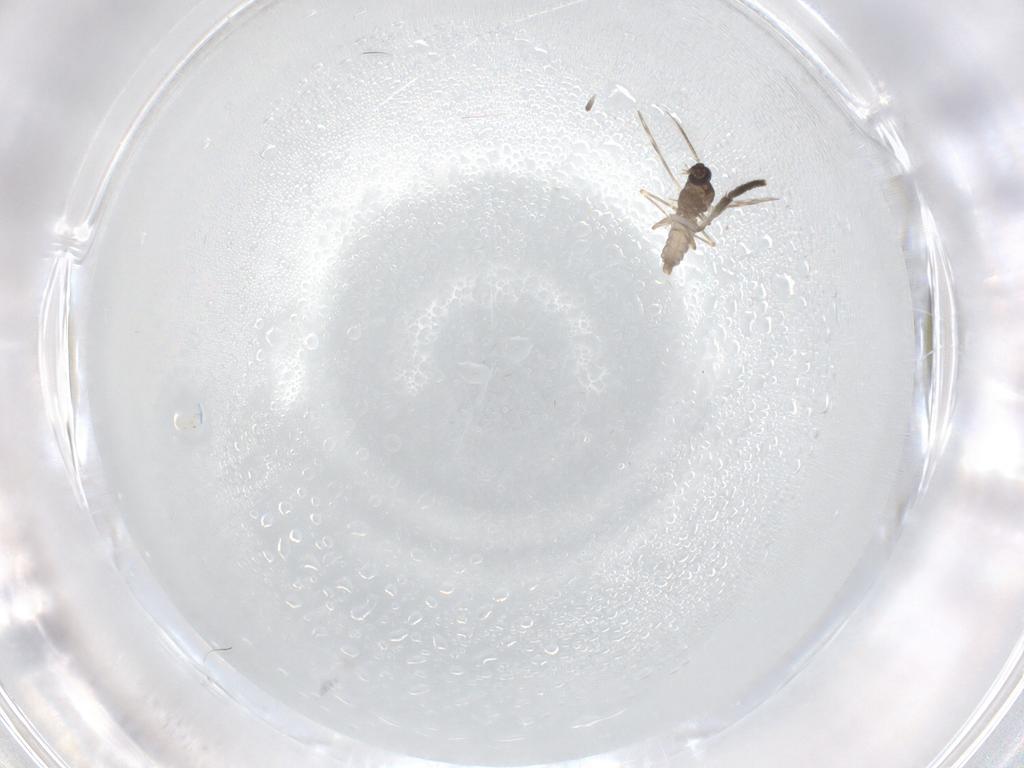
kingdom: Animalia
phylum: Arthropoda
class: Insecta
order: Diptera
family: Ceratopogonidae
